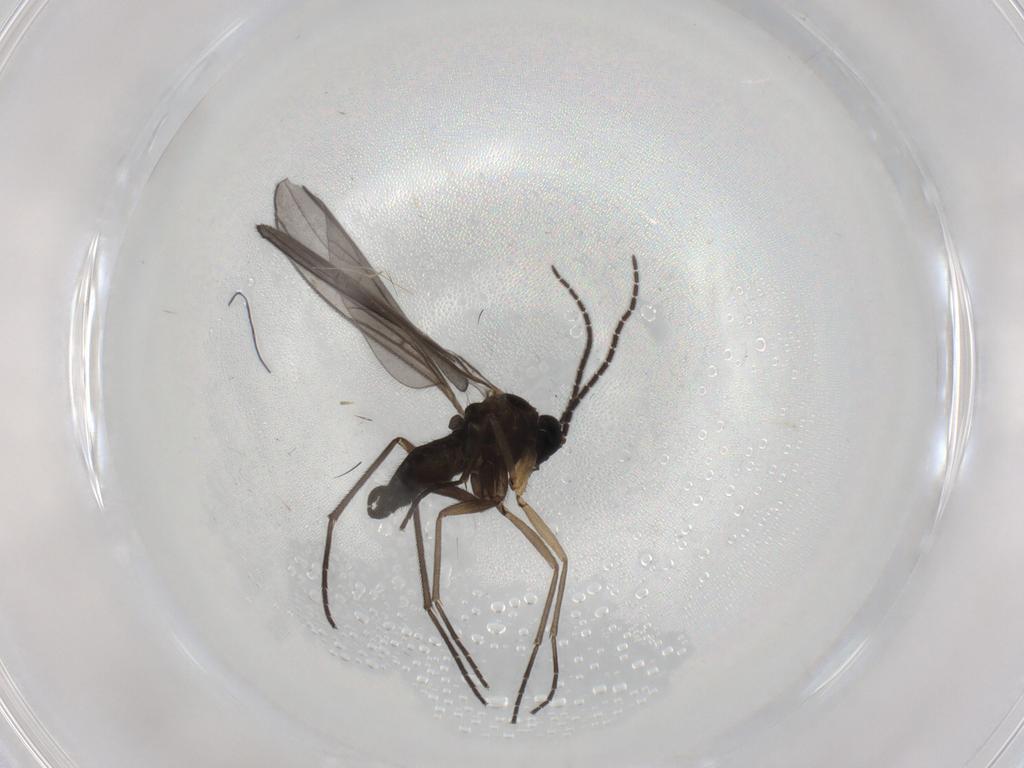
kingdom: Animalia
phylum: Arthropoda
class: Insecta
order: Diptera
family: Sciaridae
